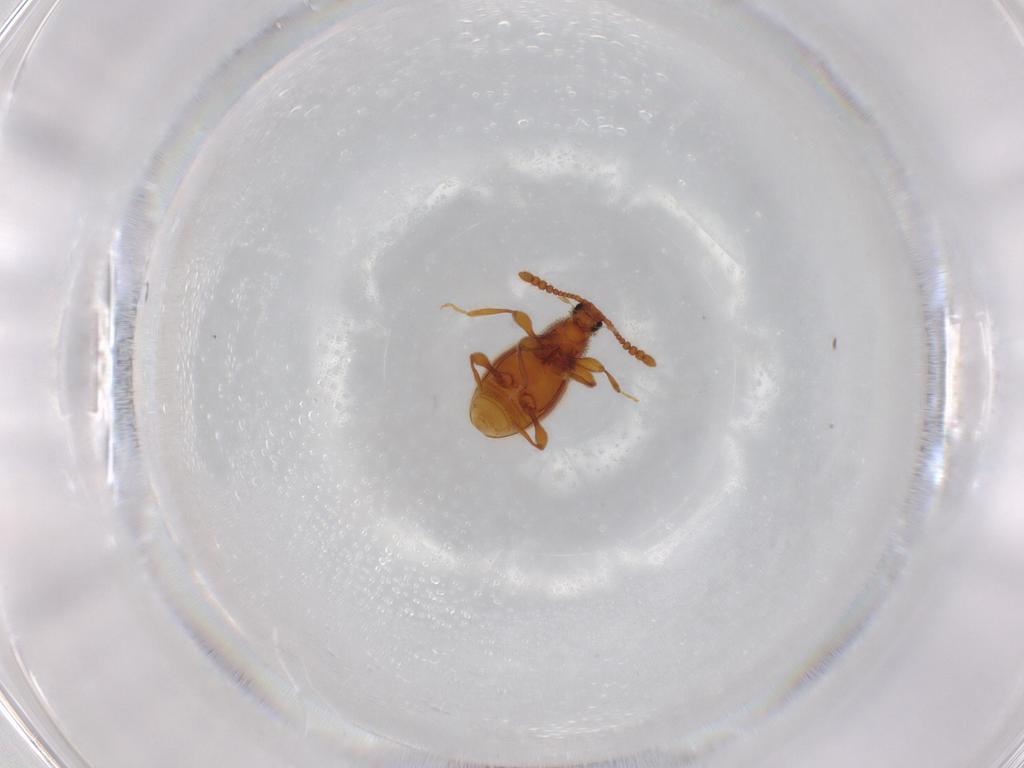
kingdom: Animalia
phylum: Arthropoda
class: Insecta
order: Coleoptera
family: Staphylinidae
